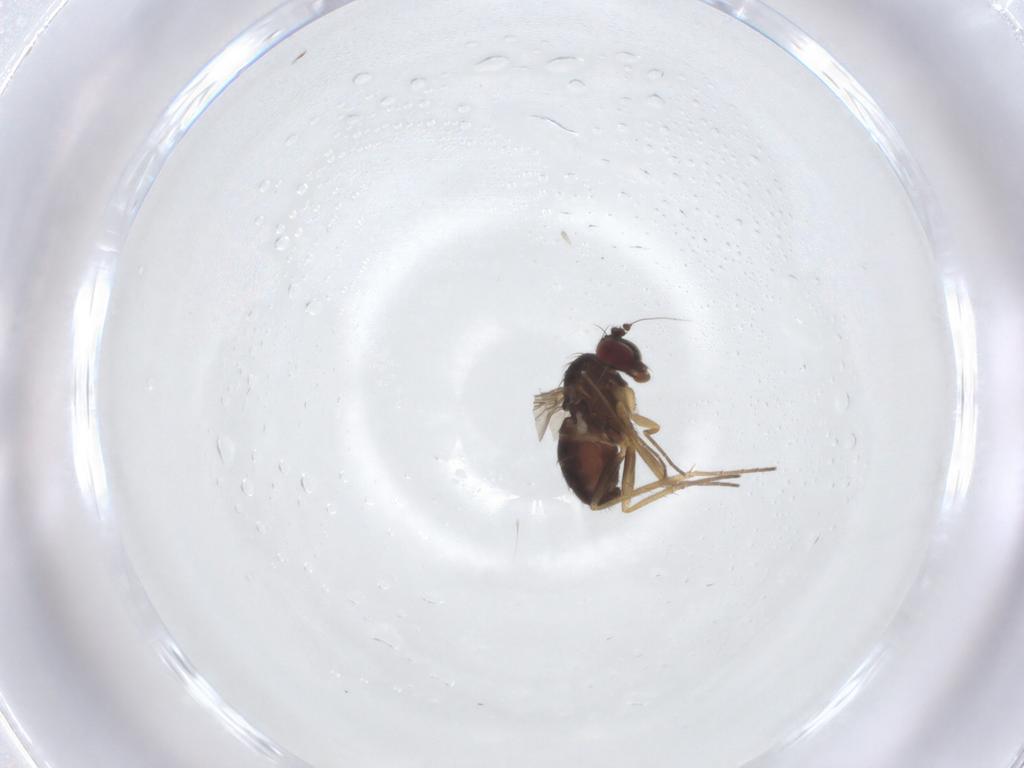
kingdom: Animalia
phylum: Arthropoda
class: Insecta
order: Diptera
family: Dolichopodidae
